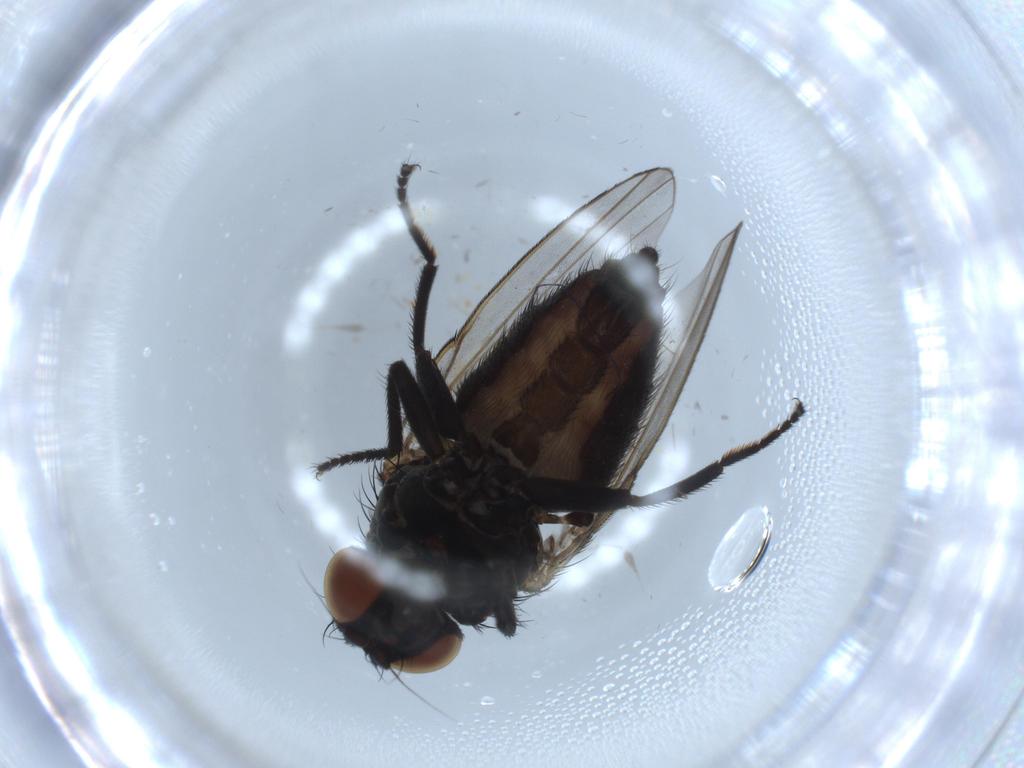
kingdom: Animalia
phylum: Arthropoda
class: Insecta
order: Diptera
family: Milichiidae
